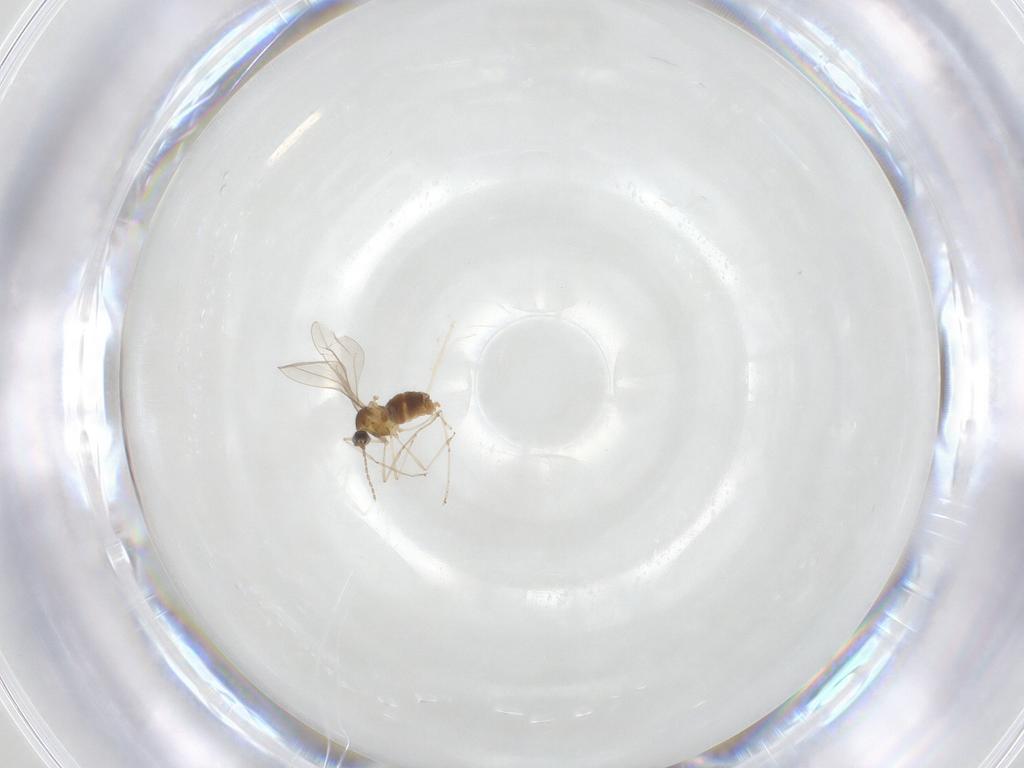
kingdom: Animalia
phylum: Arthropoda
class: Insecta
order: Diptera
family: Cecidomyiidae
